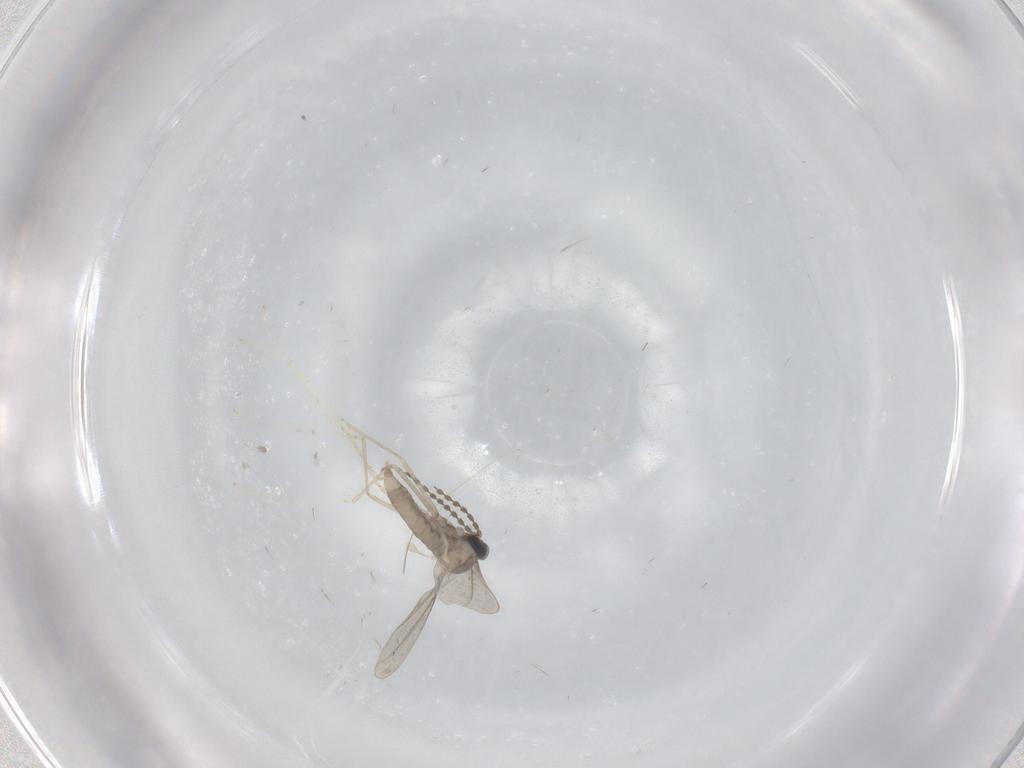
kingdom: Animalia
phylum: Arthropoda
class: Insecta
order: Diptera
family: Cecidomyiidae
